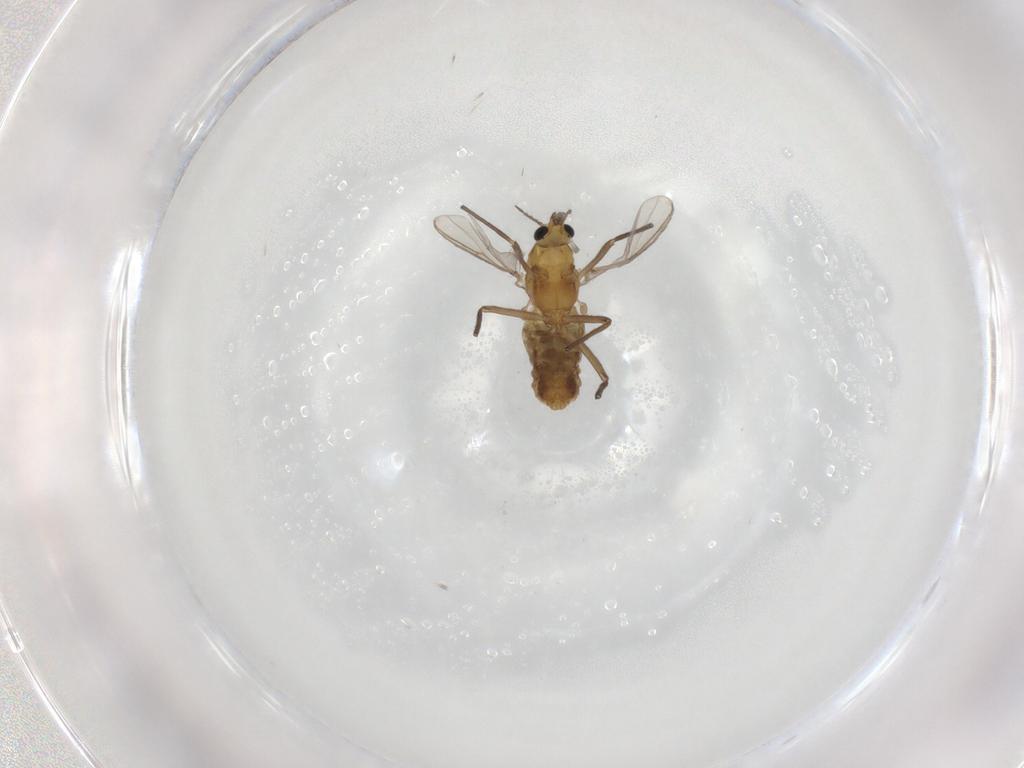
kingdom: Animalia
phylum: Arthropoda
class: Insecta
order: Diptera
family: Chironomidae
